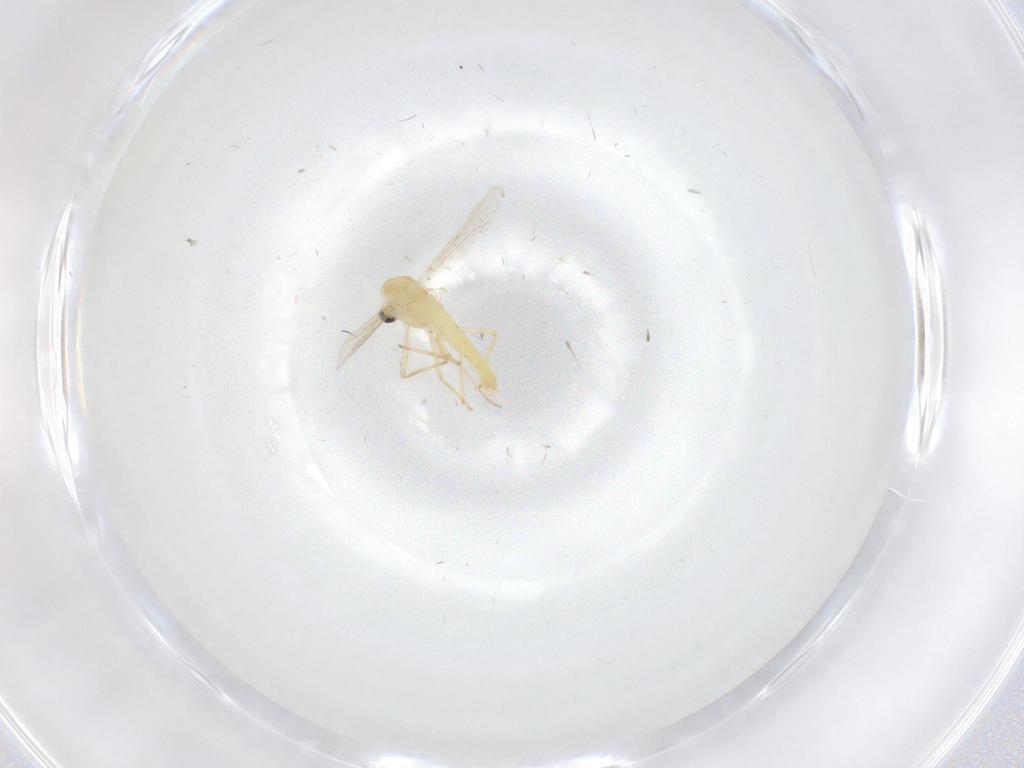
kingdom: Animalia
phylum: Arthropoda
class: Insecta
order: Diptera
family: Chironomidae
